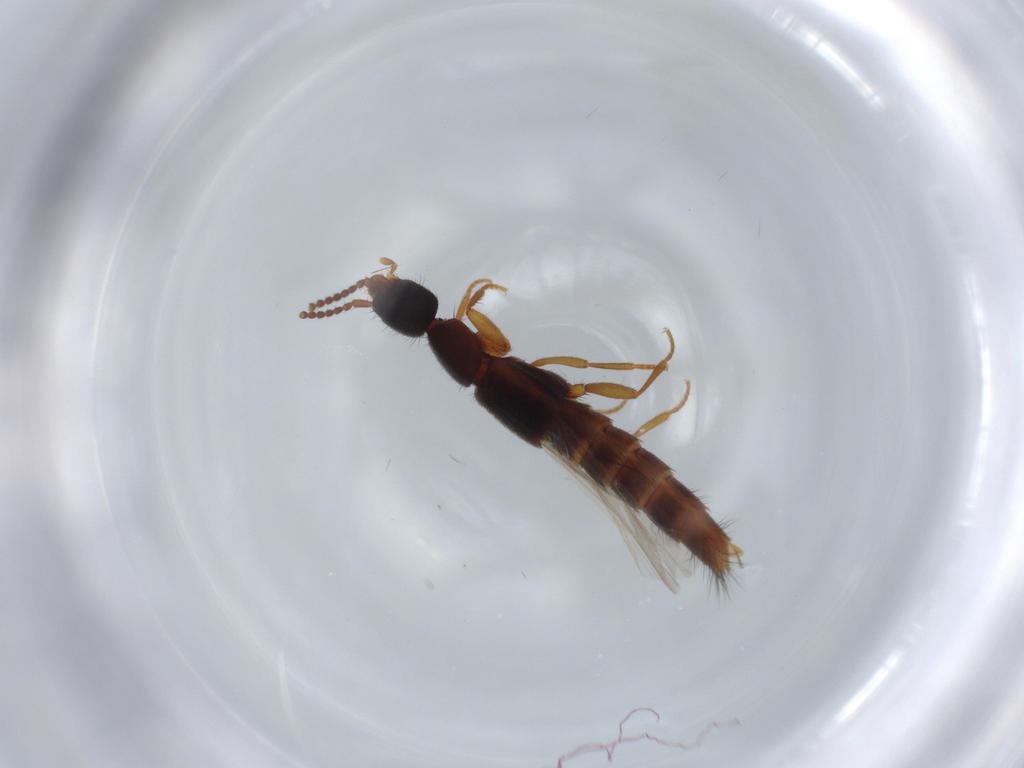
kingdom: Animalia
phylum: Arthropoda
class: Insecta
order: Coleoptera
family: Staphylinidae
